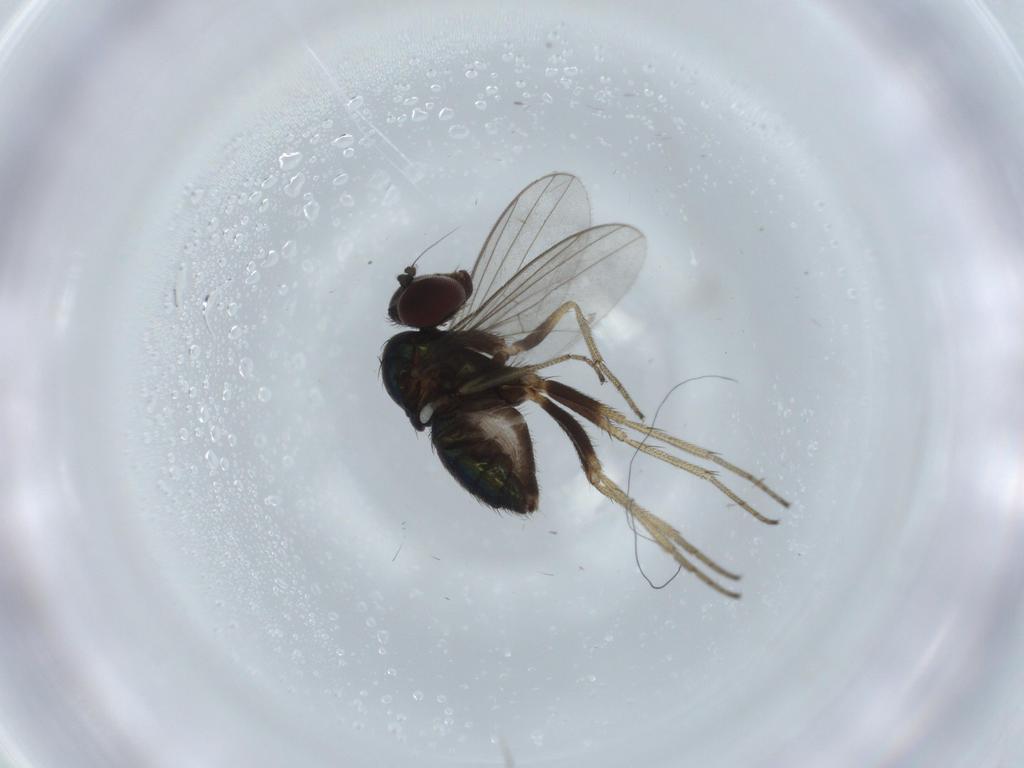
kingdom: Animalia
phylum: Arthropoda
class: Insecta
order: Diptera
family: Dolichopodidae
